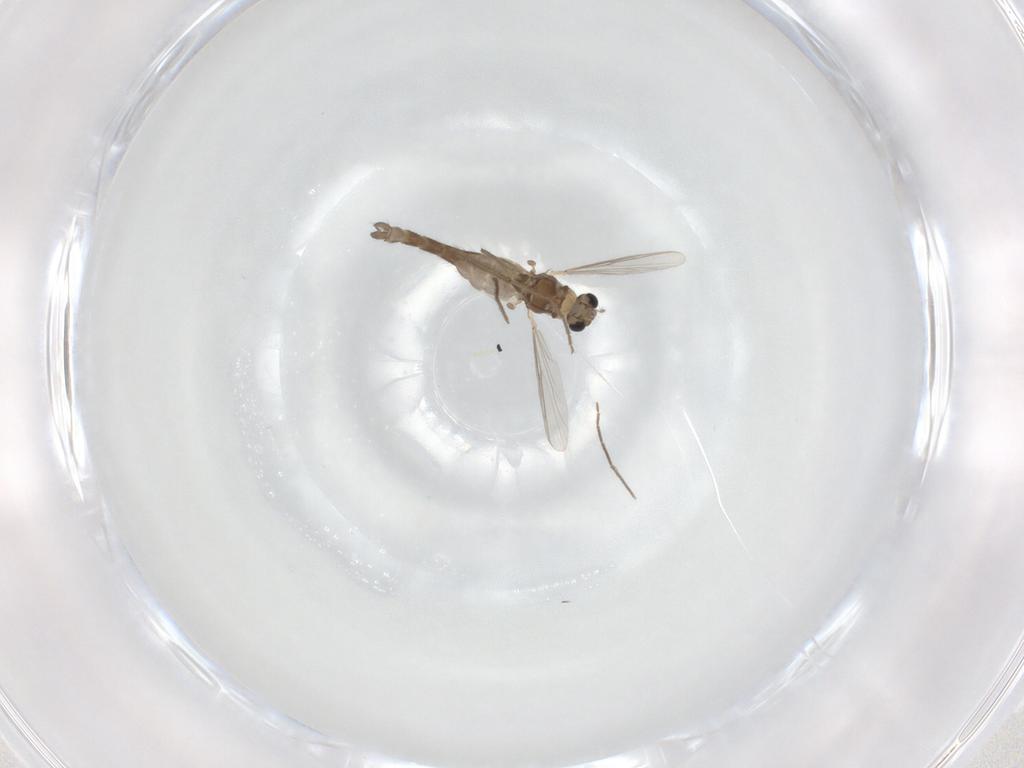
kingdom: Animalia
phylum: Arthropoda
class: Insecta
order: Diptera
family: Chironomidae
